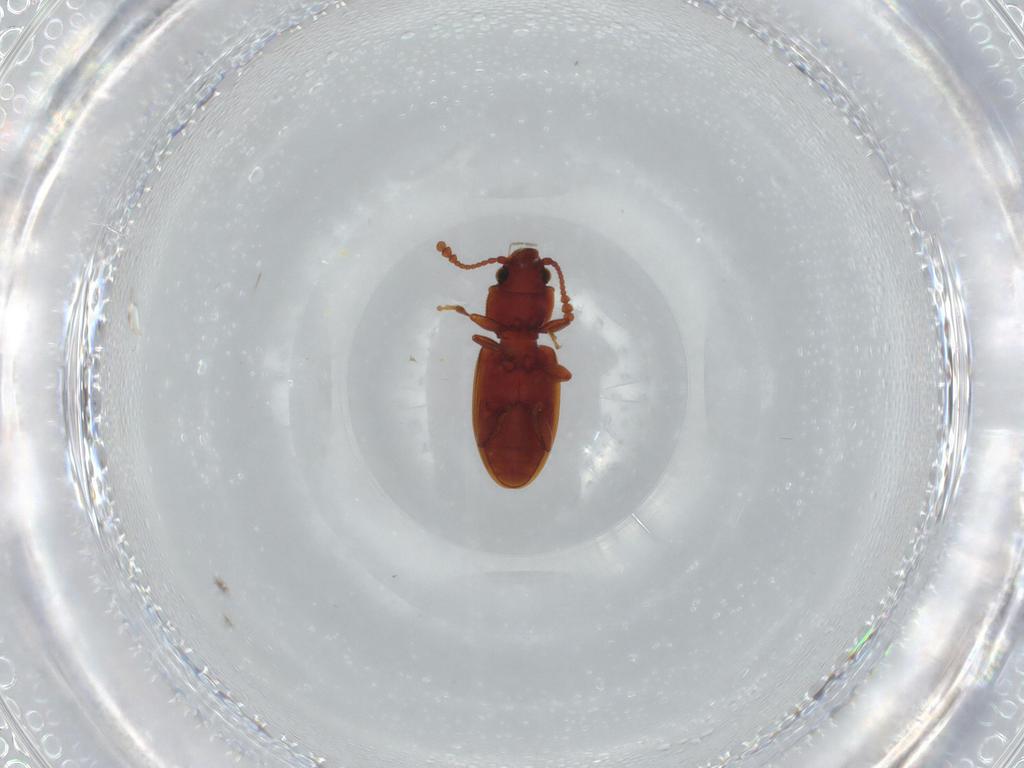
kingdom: Animalia
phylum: Arthropoda
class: Insecta
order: Coleoptera
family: Silvanidae
